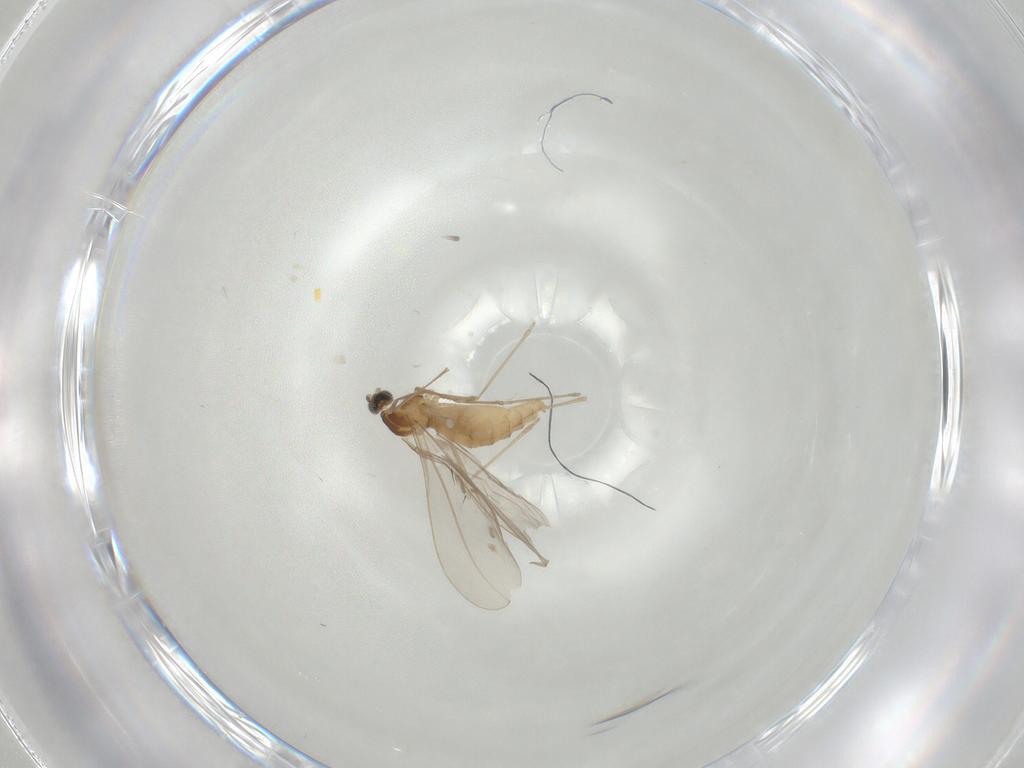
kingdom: Animalia
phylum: Arthropoda
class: Insecta
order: Diptera
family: Cecidomyiidae
